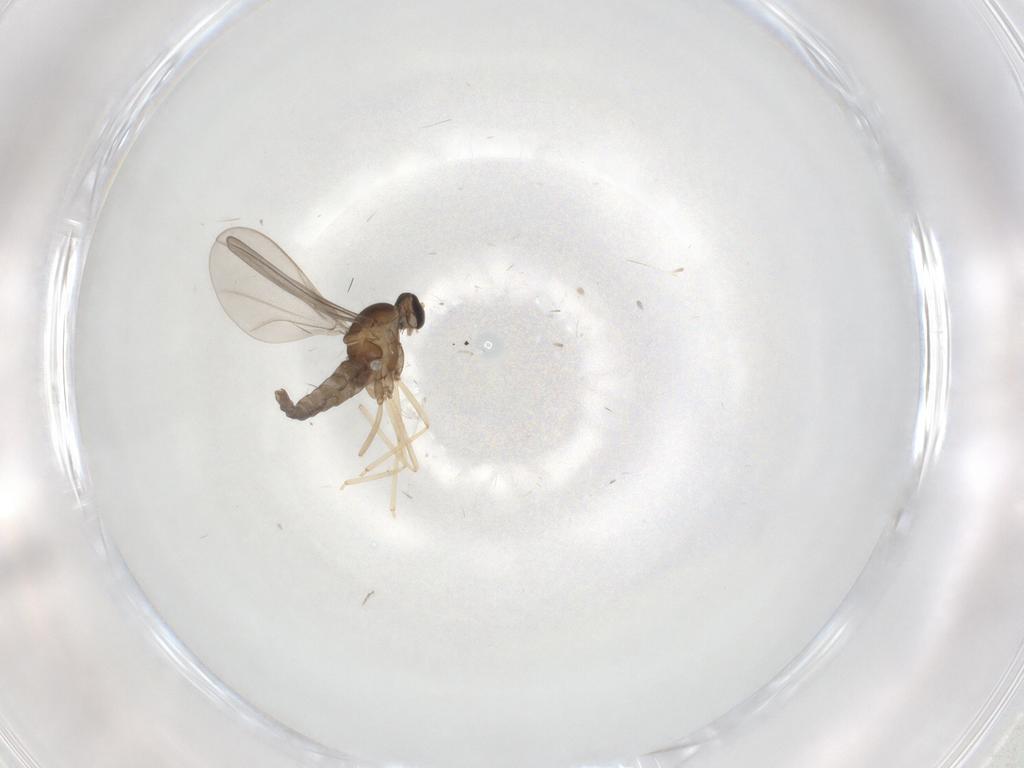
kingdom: Animalia
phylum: Arthropoda
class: Insecta
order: Diptera
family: Cecidomyiidae
